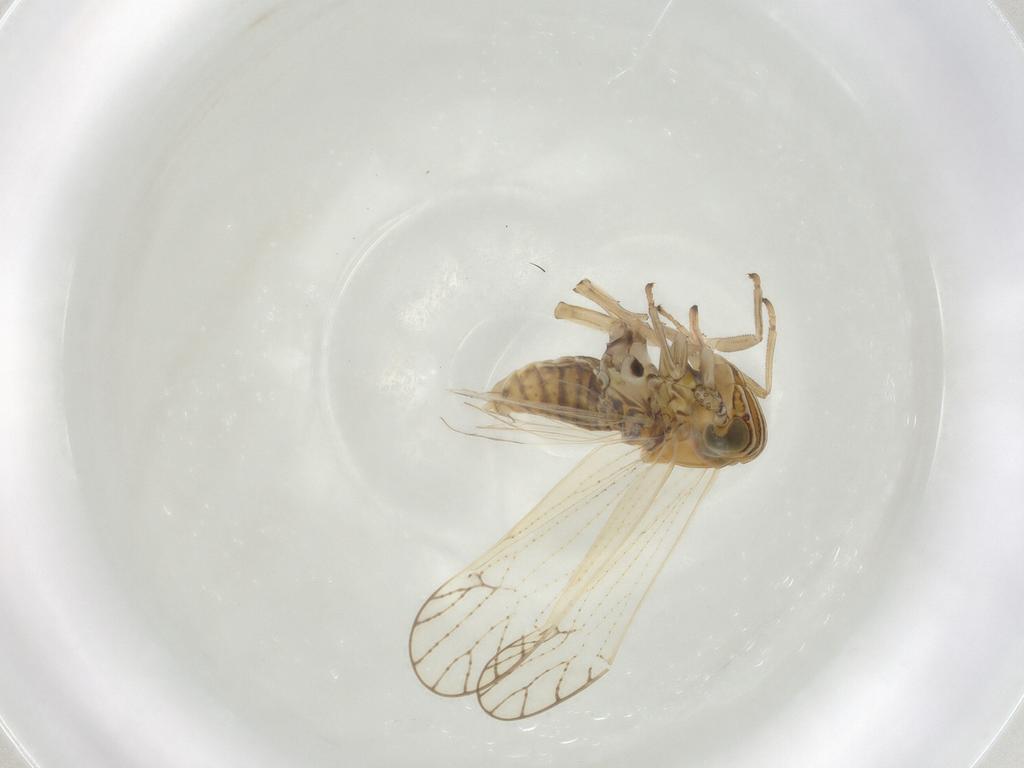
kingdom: Animalia
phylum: Arthropoda
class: Insecta
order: Hemiptera
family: Delphacidae
